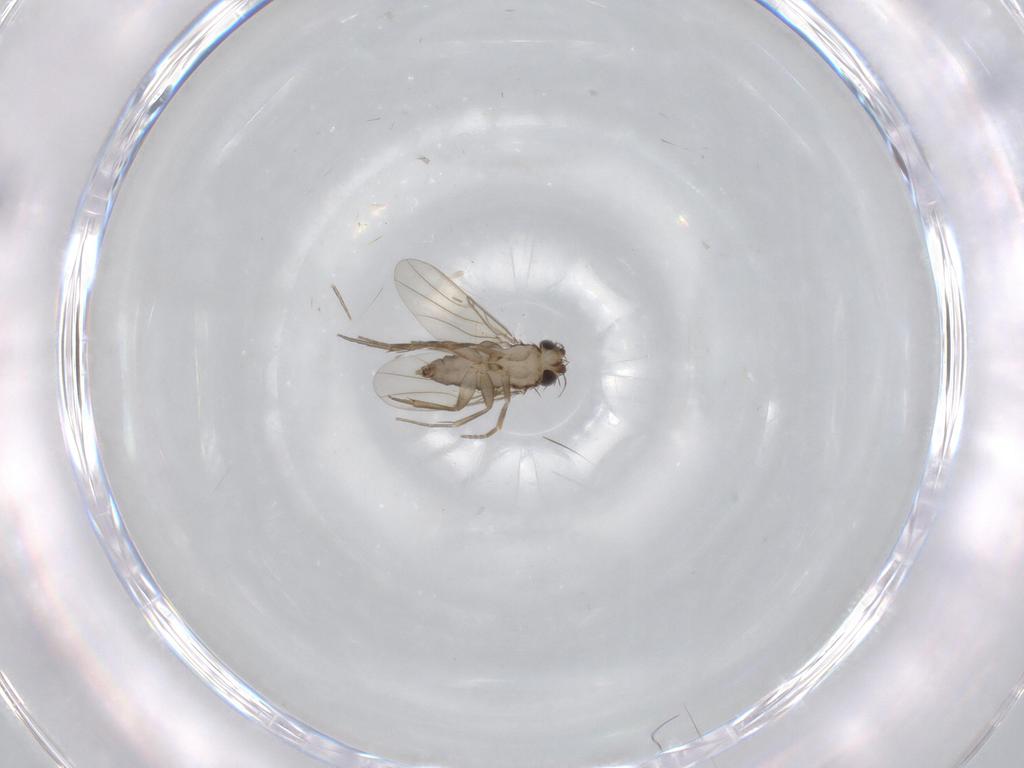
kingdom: Animalia
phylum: Arthropoda
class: Insecta
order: Diptera
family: Phoridae
